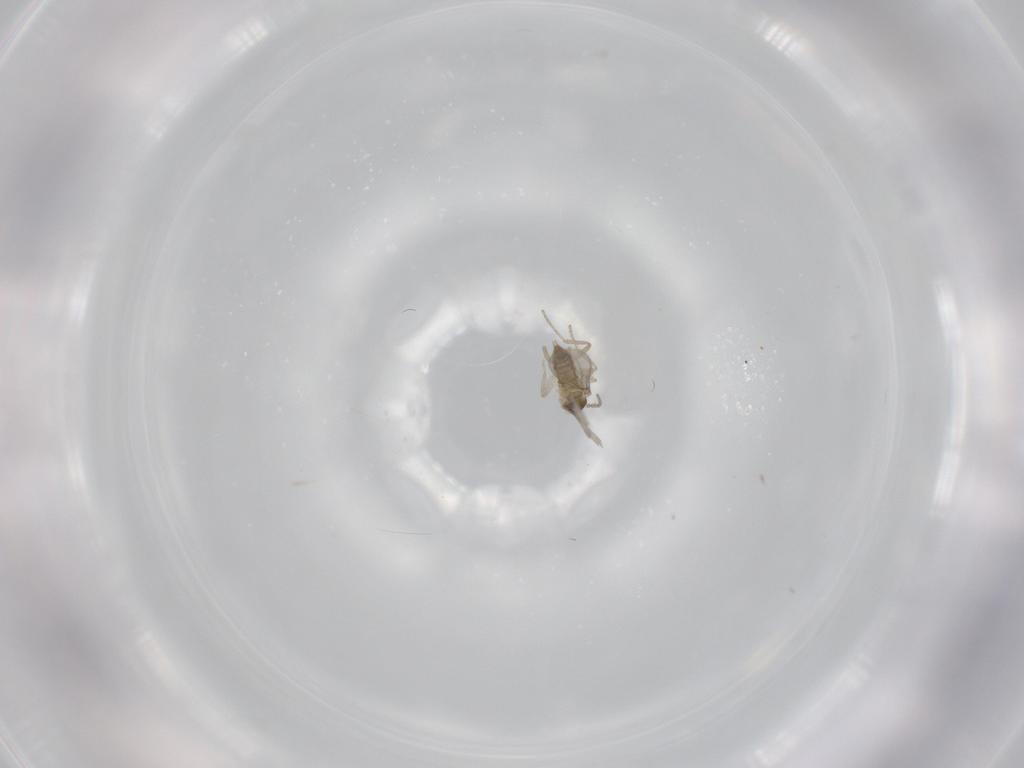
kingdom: Animalia
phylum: Arthropoda
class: Insecta
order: Diptera
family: Cecidomyiidae
